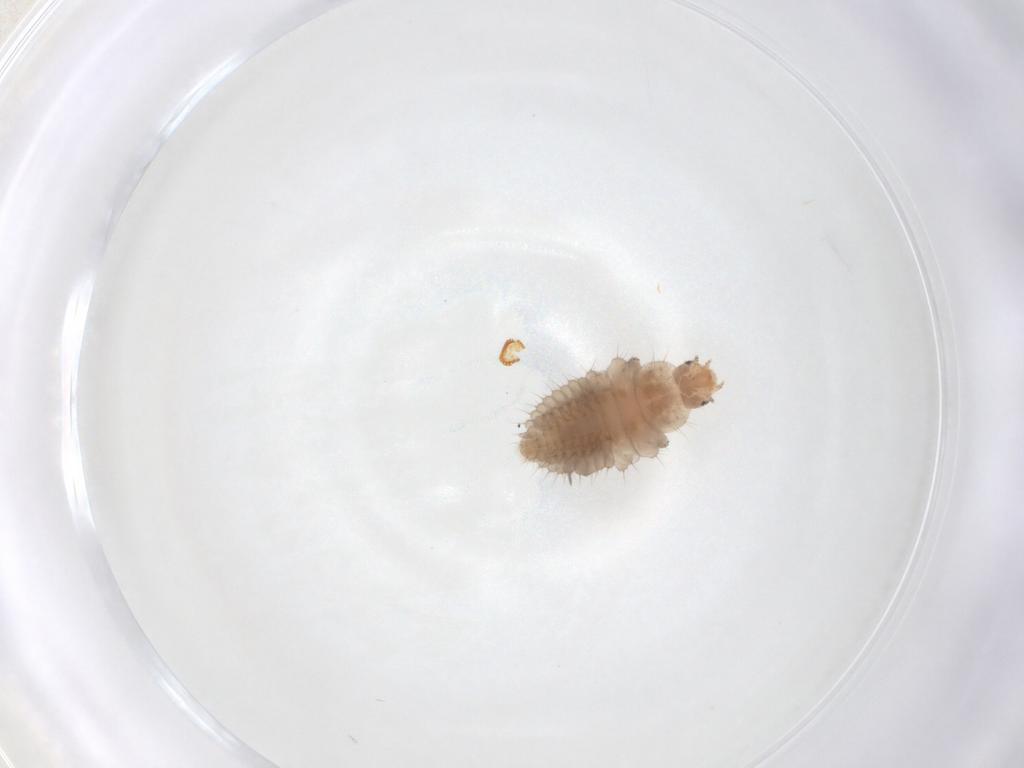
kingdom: Animalia
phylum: Arthropoda
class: Insecta
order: Coleoptera
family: Coccinellidae
